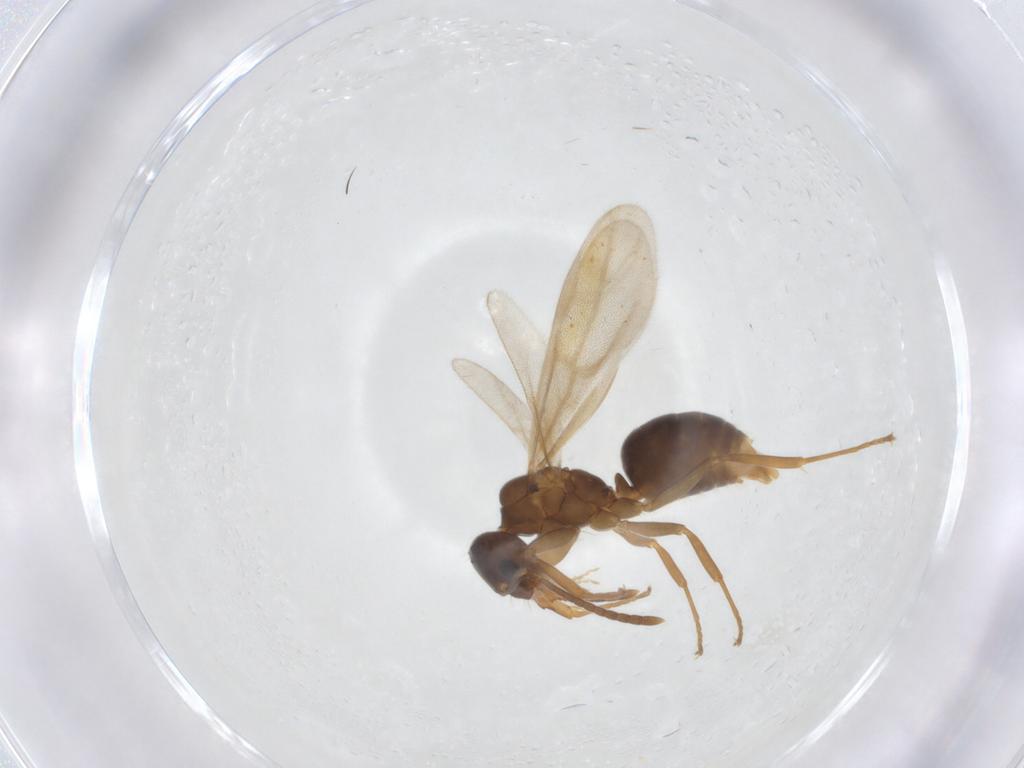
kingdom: Animalia
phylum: Arthropoda
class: Insecta
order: Hymenoptera
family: Formicidae
